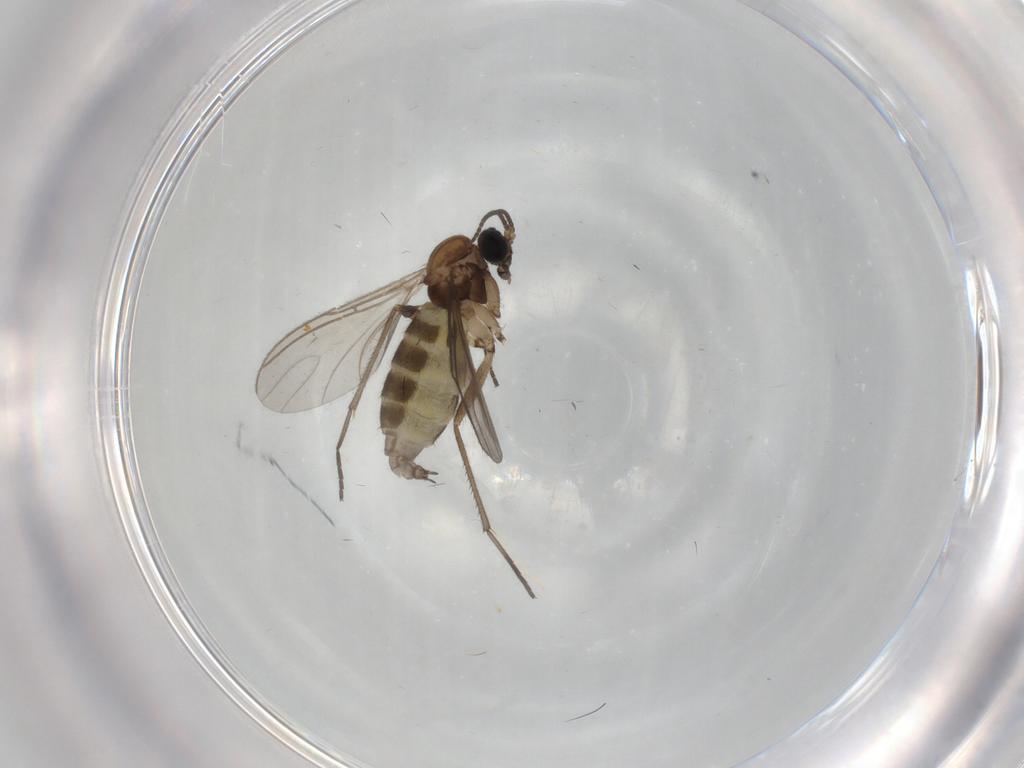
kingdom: Animalia
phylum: Arthropoda
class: Insecta
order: Diptera
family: Sciaridae
